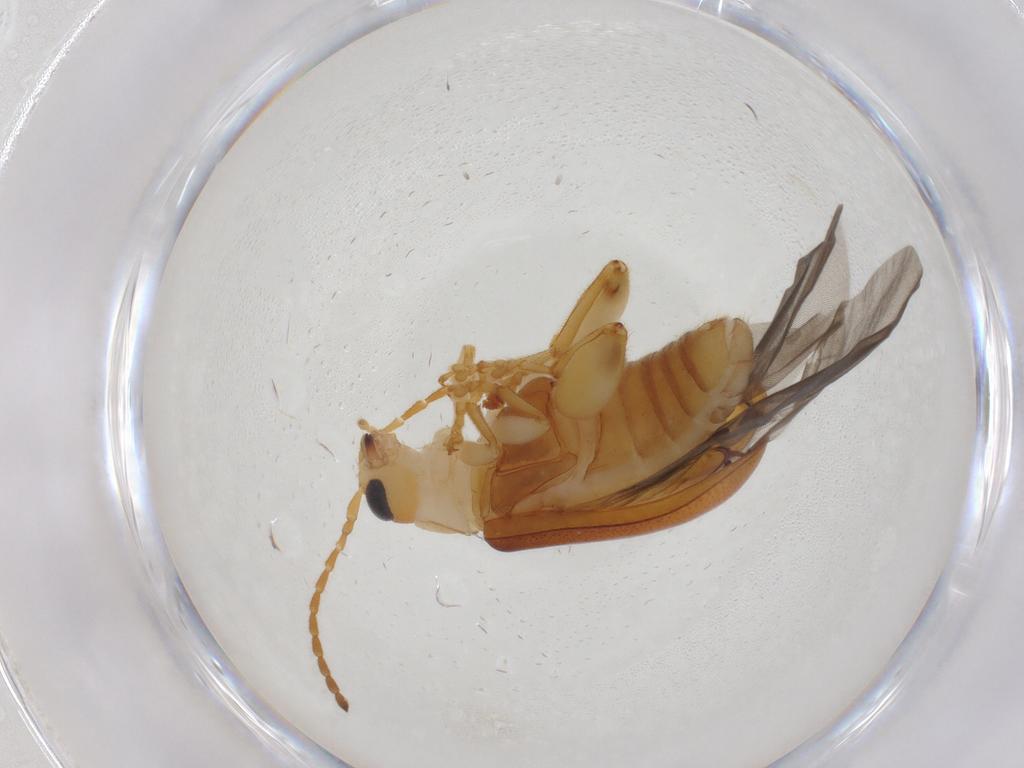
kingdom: Animalia
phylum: Arthropoda
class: Insecta
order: Coleoptera
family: Chrysomelidae
